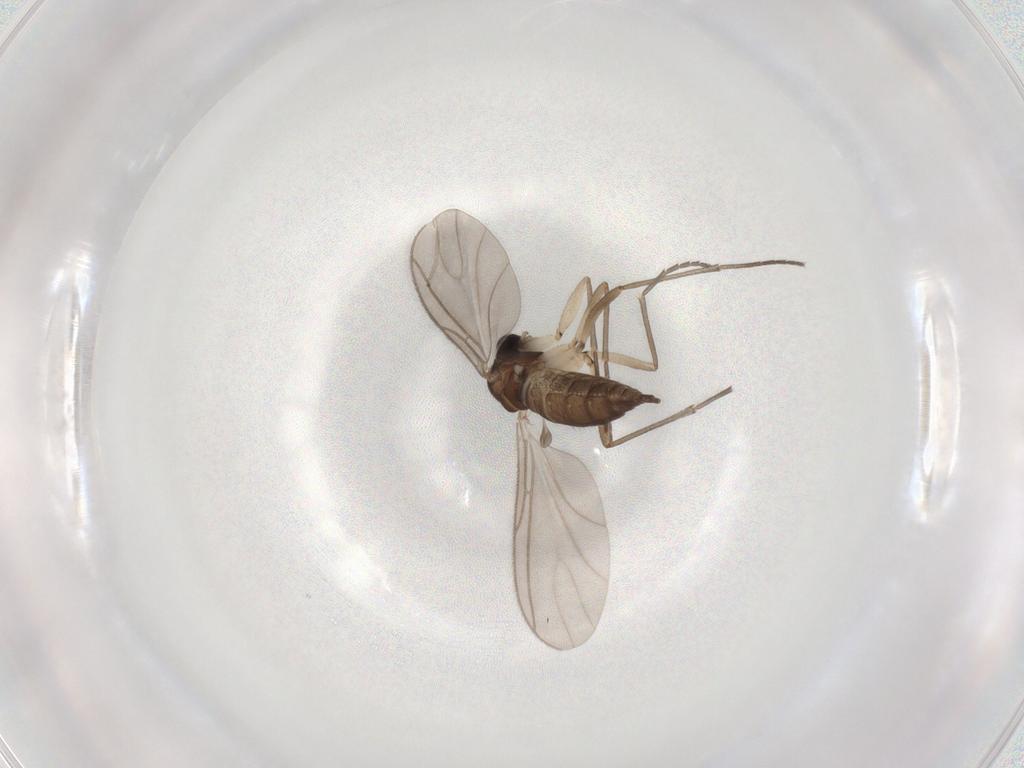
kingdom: Animalia
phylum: Arthropoda
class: Insecta
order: Diptera
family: Sciaridae
